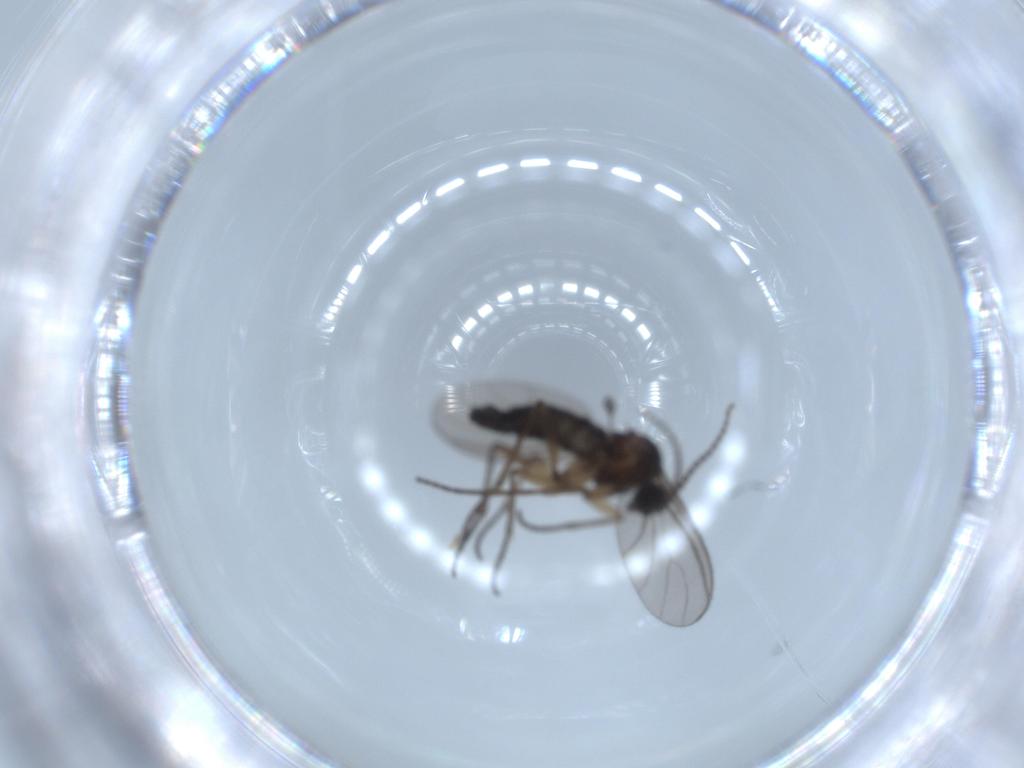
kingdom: Animalia
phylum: Arthropoda
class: Insecta
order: Diptera
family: Sciaridae
